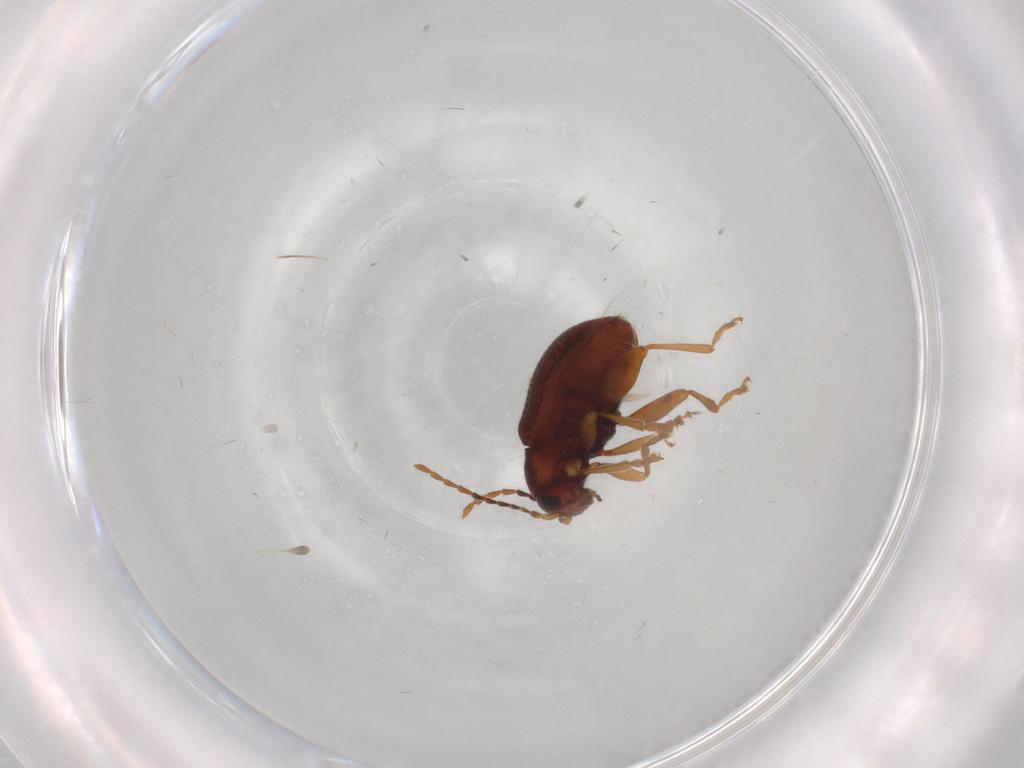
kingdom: Animalia
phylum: Arthropoda
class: Insecta
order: Coleoptera
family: Chrysomelidae
